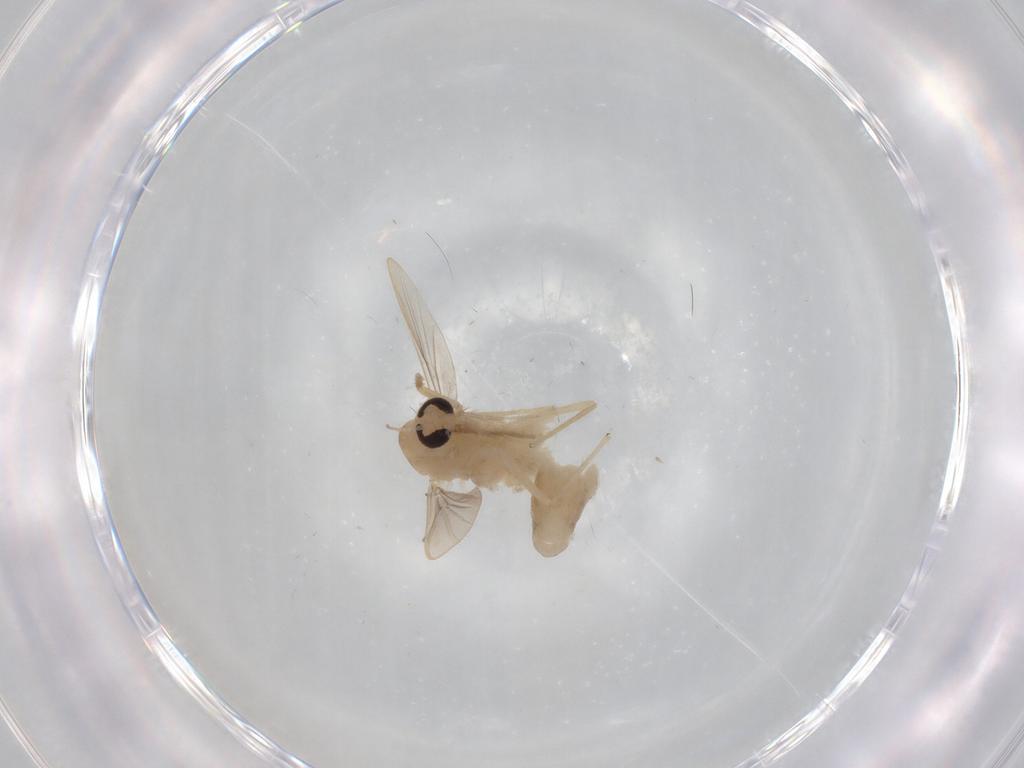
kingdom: Animalia
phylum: Arthropoda
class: Insecta
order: Diptera
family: Chironomidae
